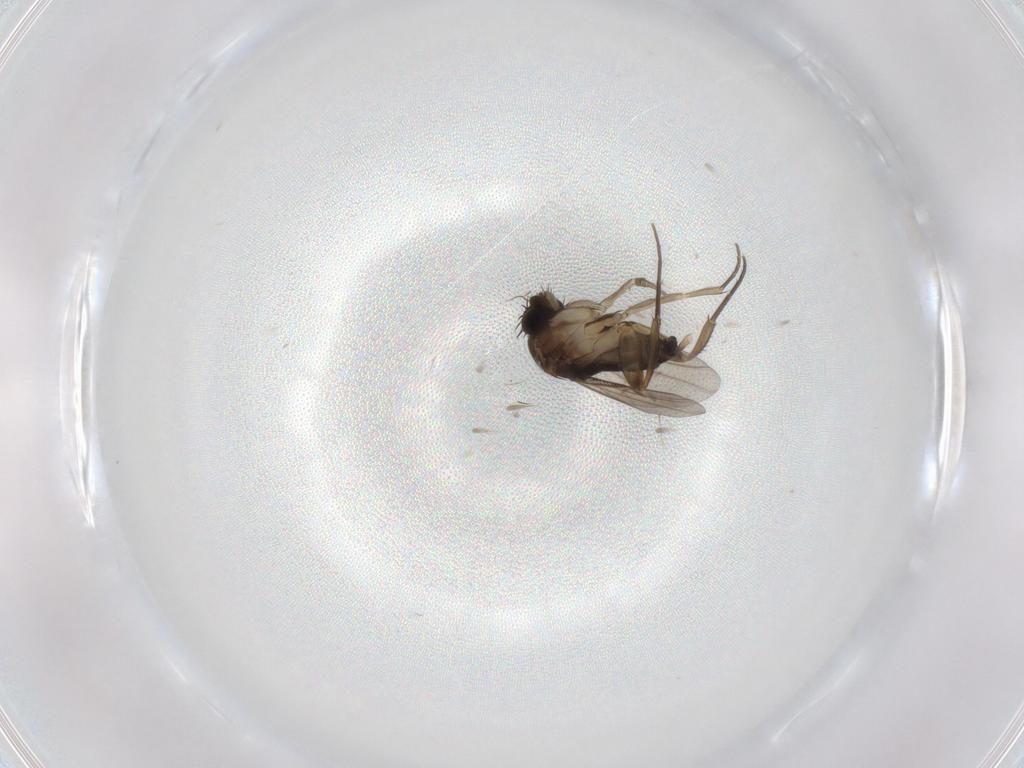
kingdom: Animalia
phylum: Arthropoda
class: Insecta
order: Diptera
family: Phoridae
